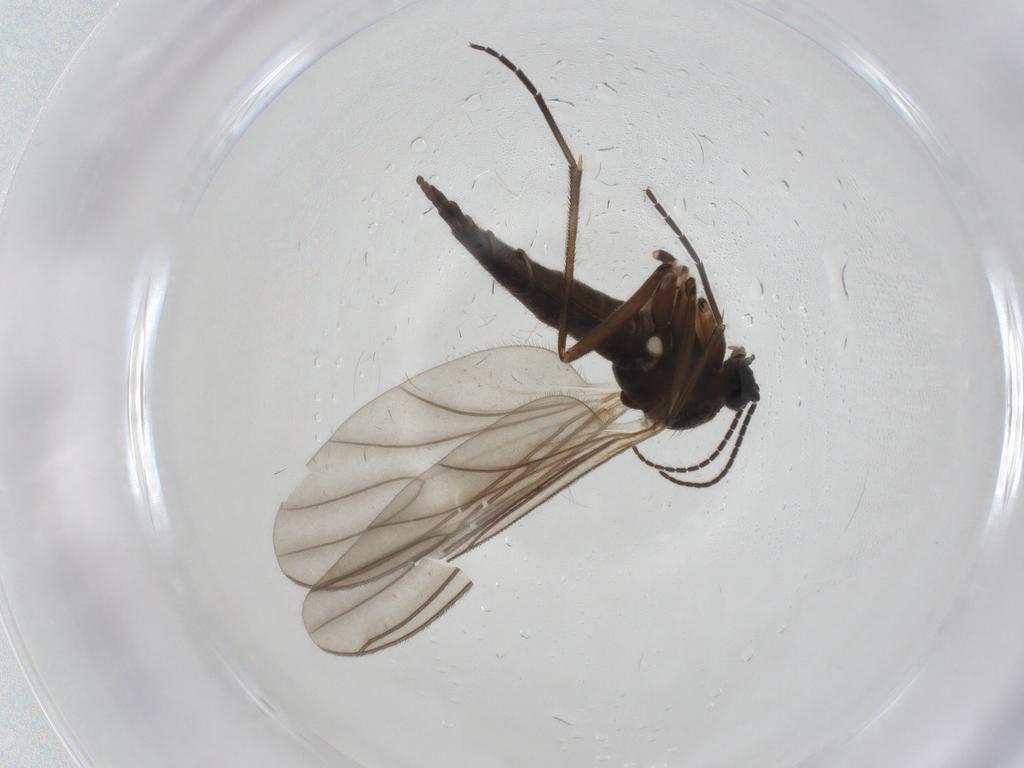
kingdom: Animalia
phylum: Arthropoda
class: Insecta
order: Diptera
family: Sciaridae
